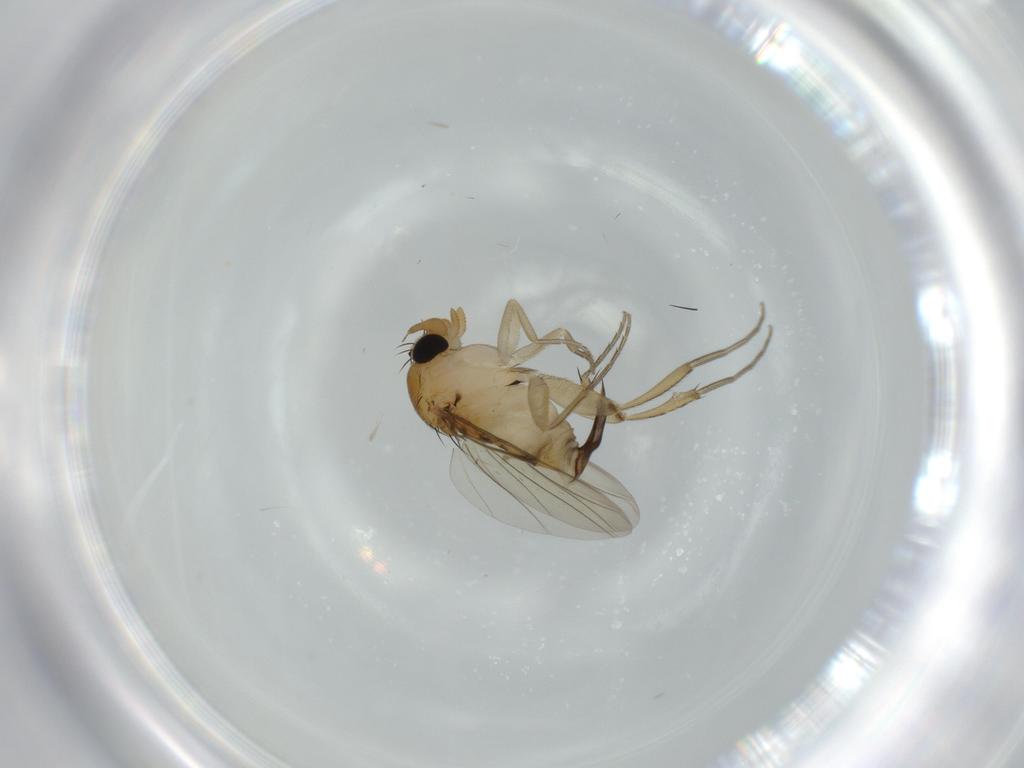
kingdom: Animalia
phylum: Arthropoda
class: Insecta
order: Diptera
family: Phoridae
